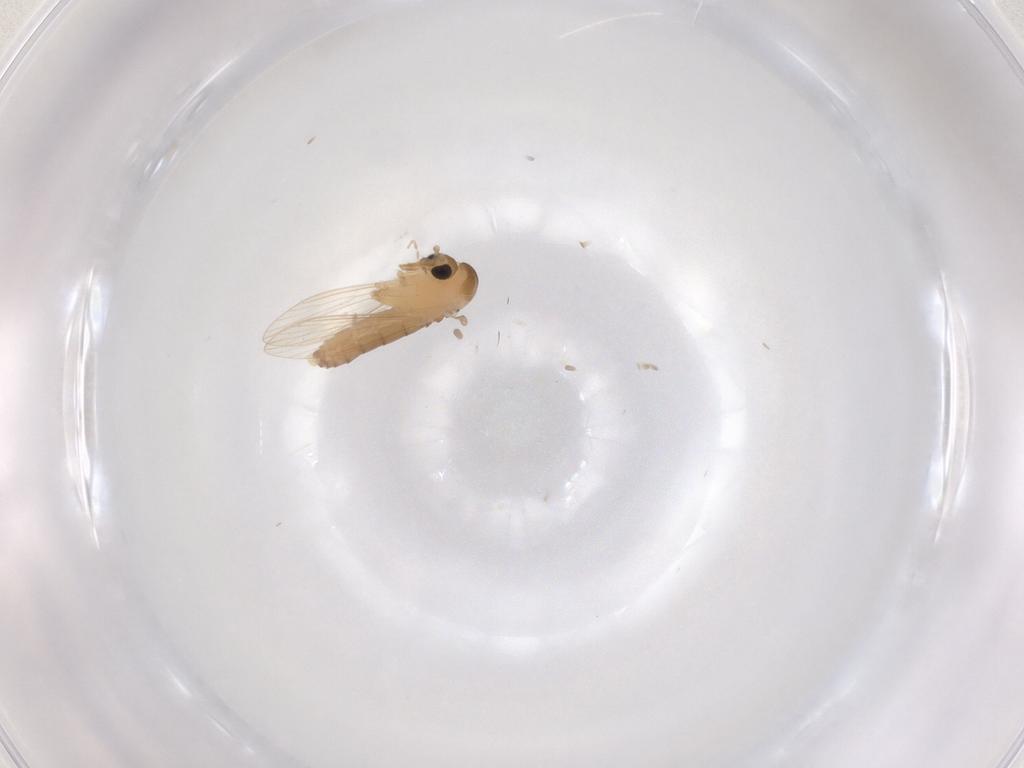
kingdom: Animalia
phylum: Arthropoda
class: Insecta
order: Diptera
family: Psychodidae
